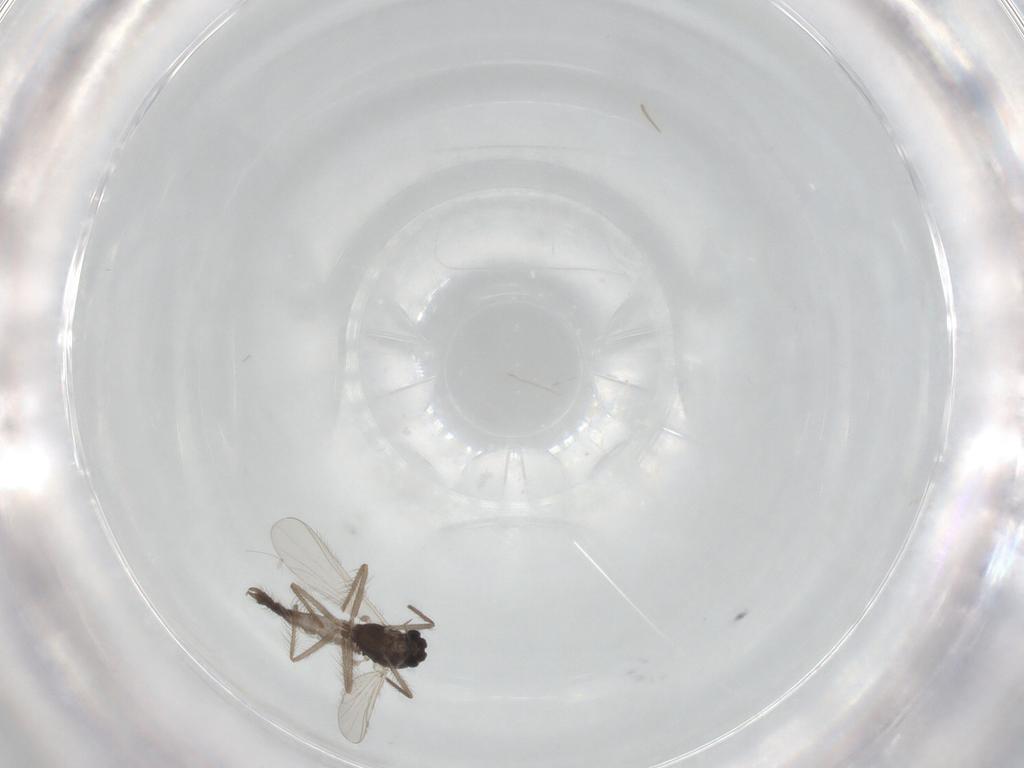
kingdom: Animalia
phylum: Arthropoda
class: Insecta
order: Diptera
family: Chironomidae
